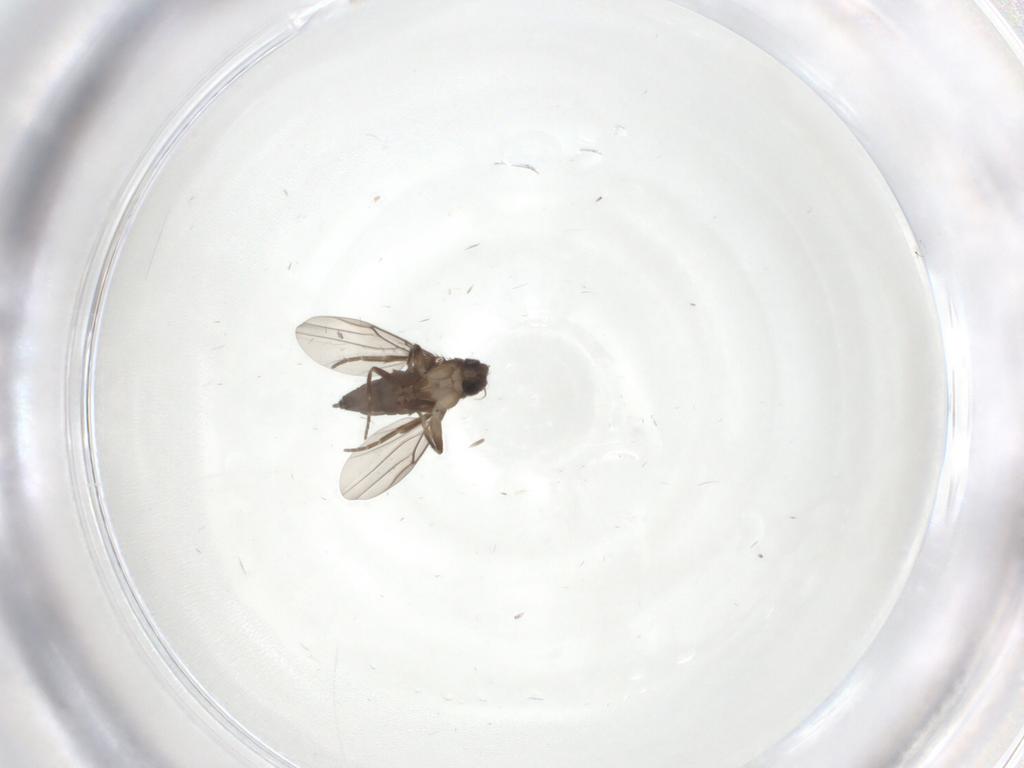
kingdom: Animalia
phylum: Arthropoda
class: Insecta
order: Diptera
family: Phoridae
